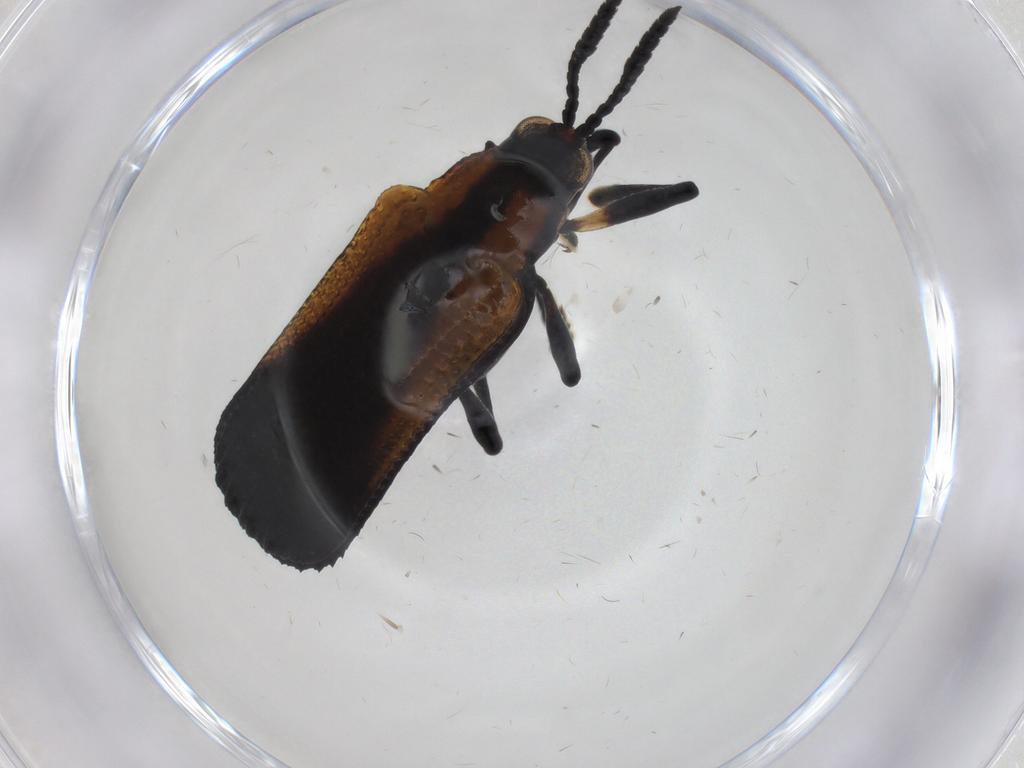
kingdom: Animalia
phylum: Arthropoda
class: Insecta
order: Coleoptera
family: Chrysomelidae
